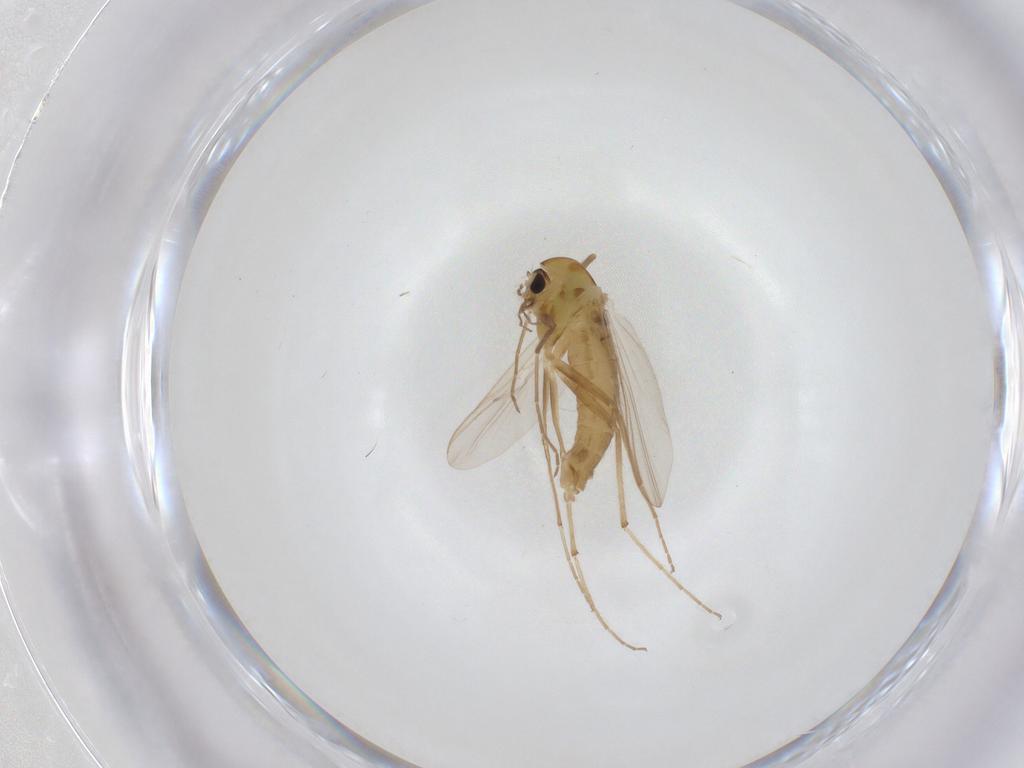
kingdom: Animalia
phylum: Arthropoda
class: Insecta
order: Diptera
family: Chironomidae
